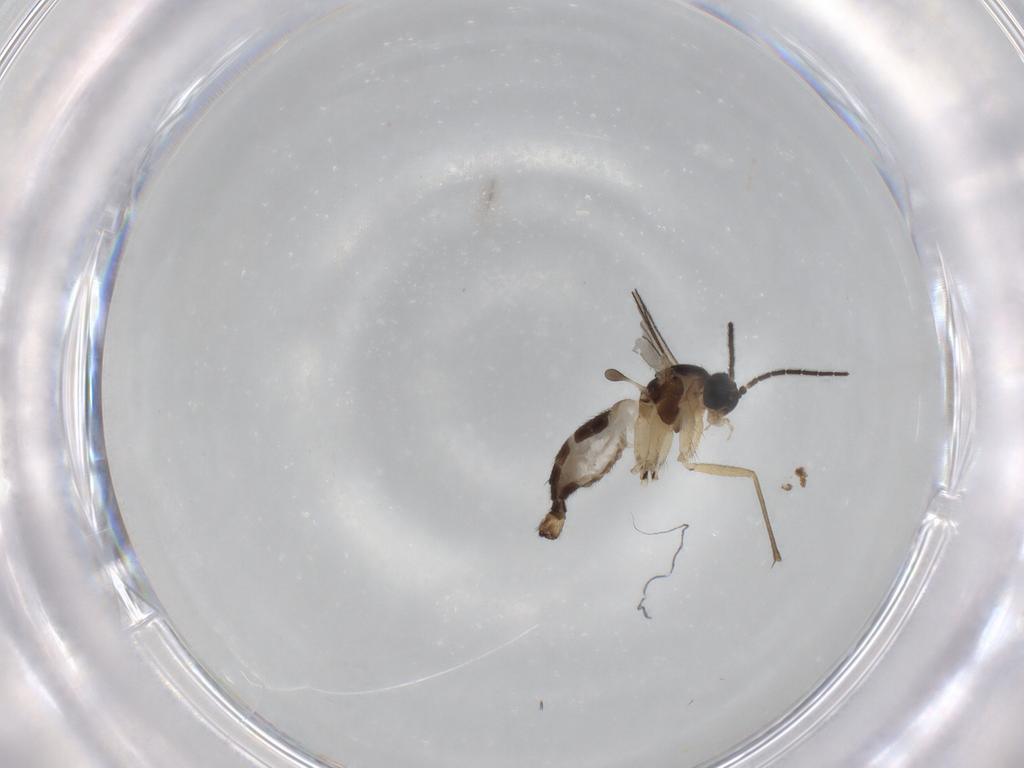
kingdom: Animalia
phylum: Arthropoda
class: Insecta
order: Diptera
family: Sciaridae
